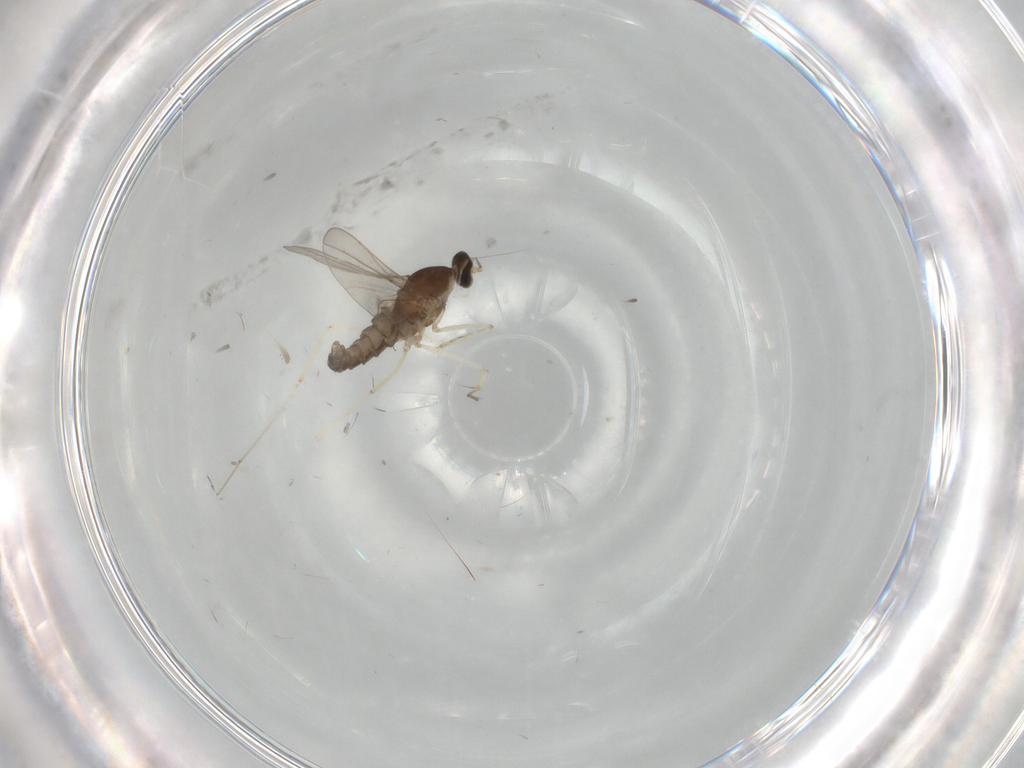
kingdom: Animalia
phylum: Arthropoda
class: Insecta
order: Diptera
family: Cecidomyiidae
